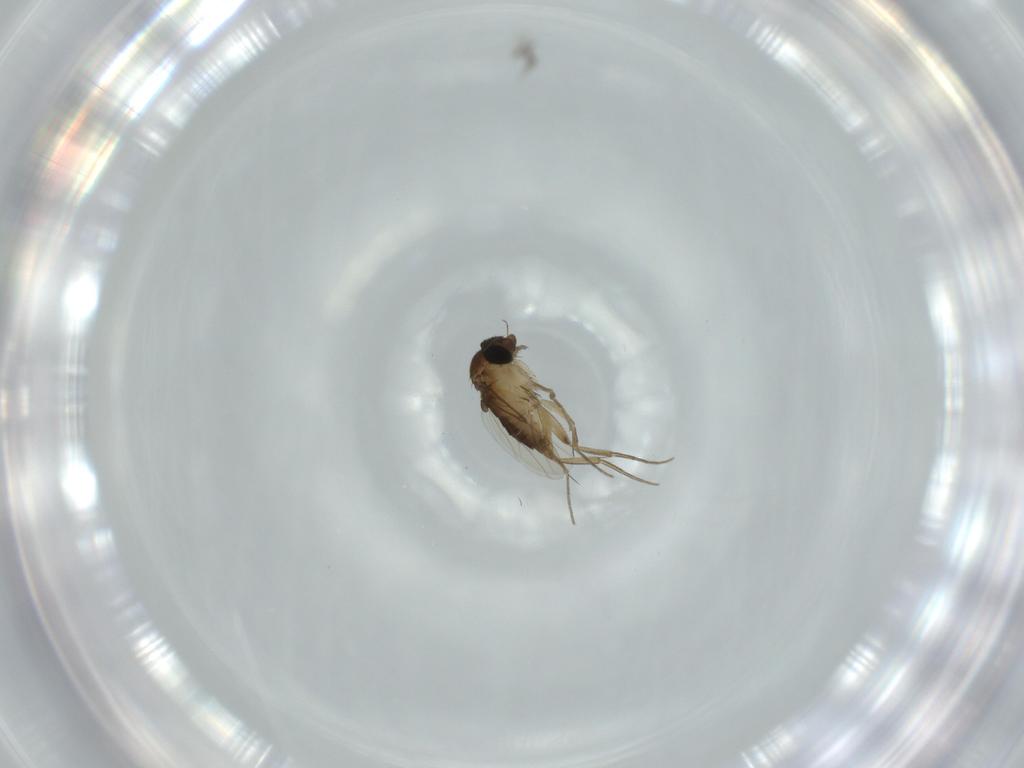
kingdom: Animalia
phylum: Arthropoda
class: Insecta
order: Diptera
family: Phoridae
